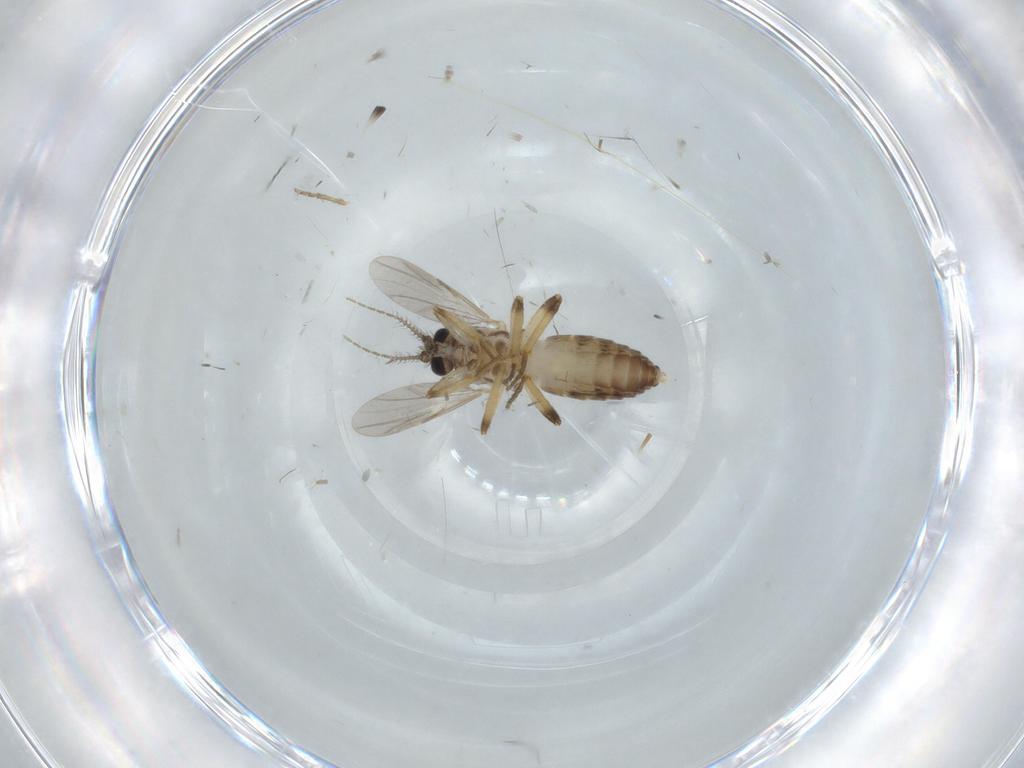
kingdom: Animalia
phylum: Arthropoda
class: Insecta
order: Diptera
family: Ceratopogonidae
